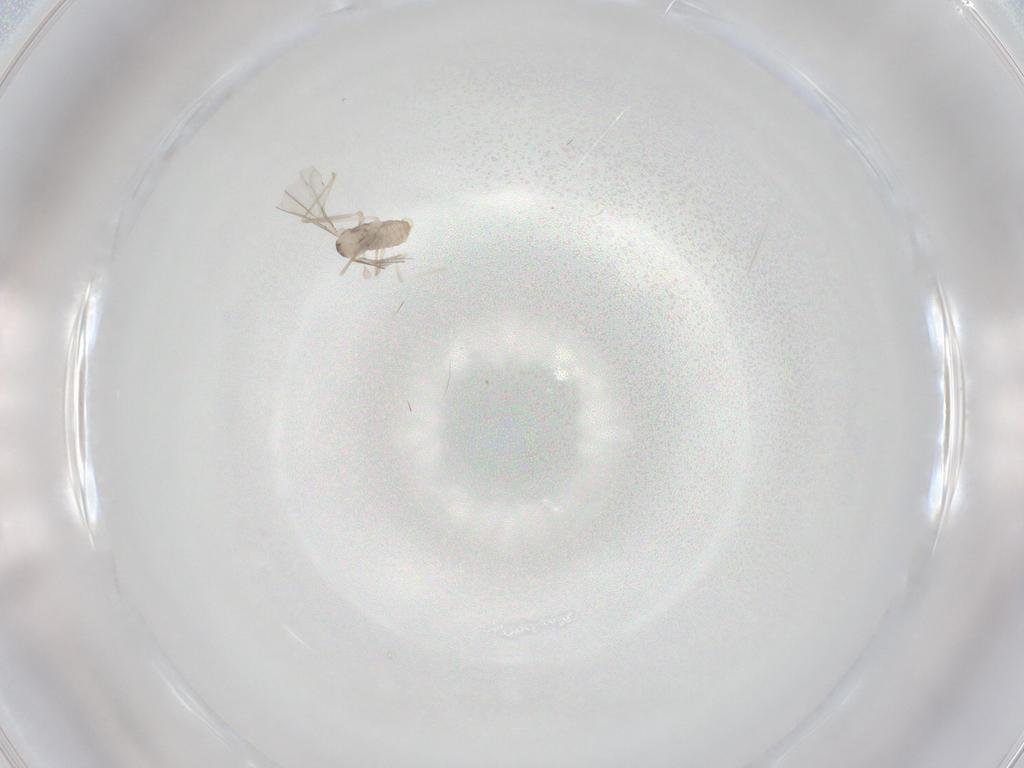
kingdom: Animalia
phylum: Arthropoda
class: Insecta
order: Diptera
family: Cecidomyiidae
